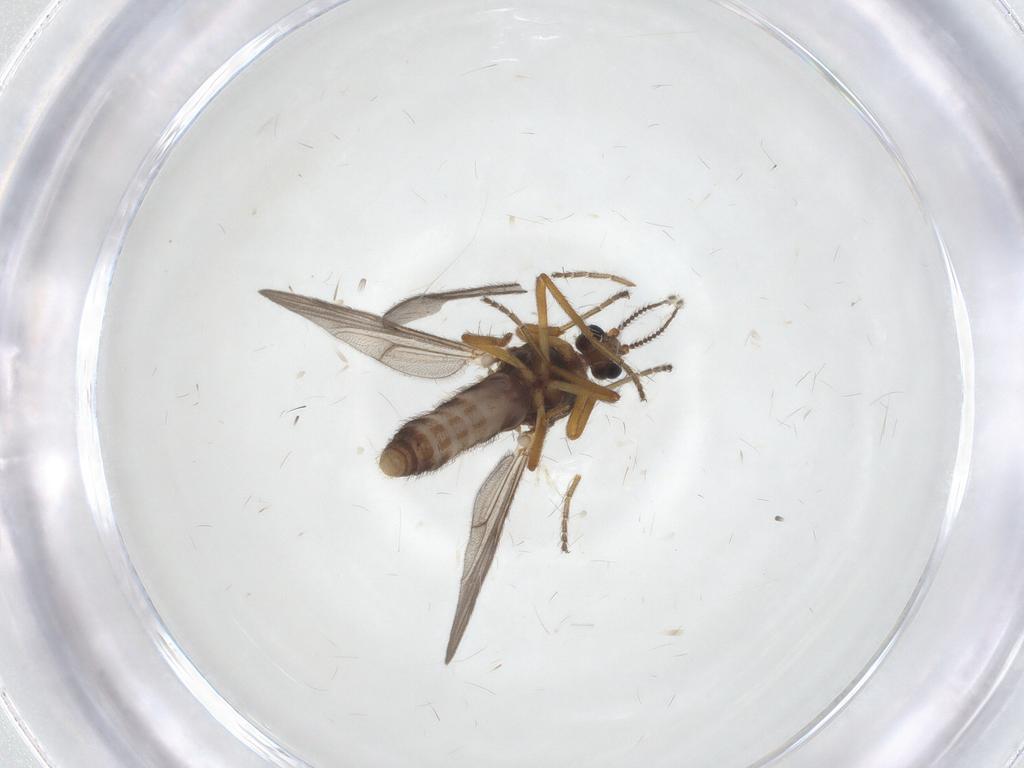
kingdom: Animalia
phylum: Arthropoda
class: Insecta
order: Diptera
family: Ceratopogonidae
